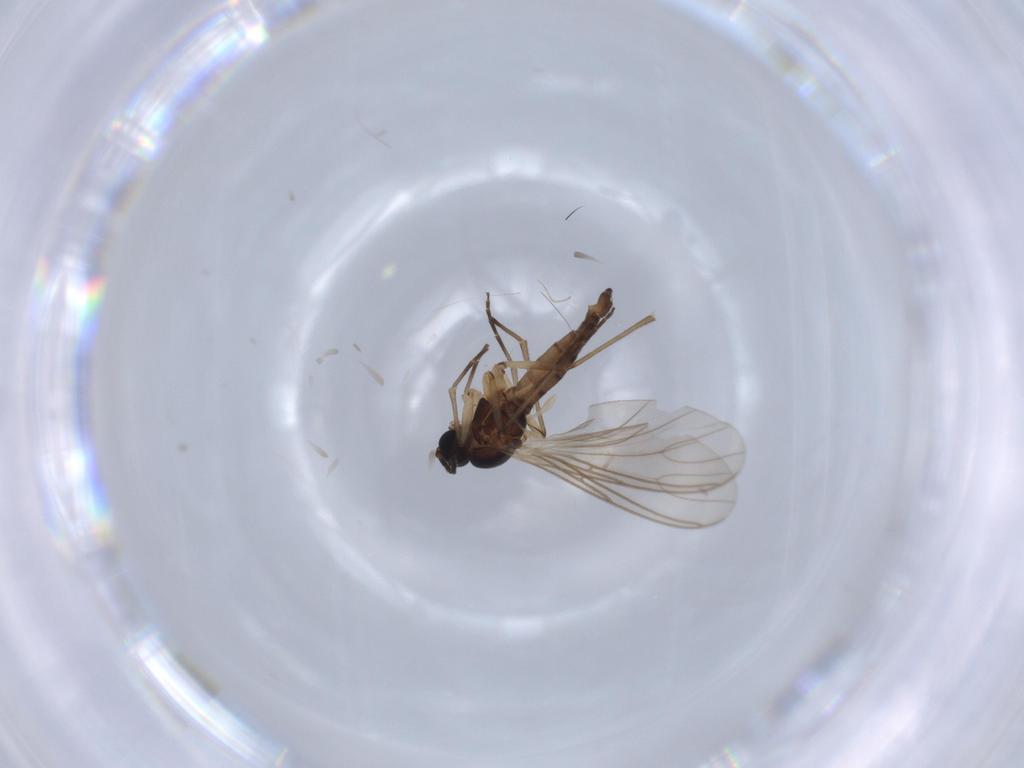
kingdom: Animalia
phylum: Arthropoda
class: Insecta
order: Diptera
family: Sciaridae
